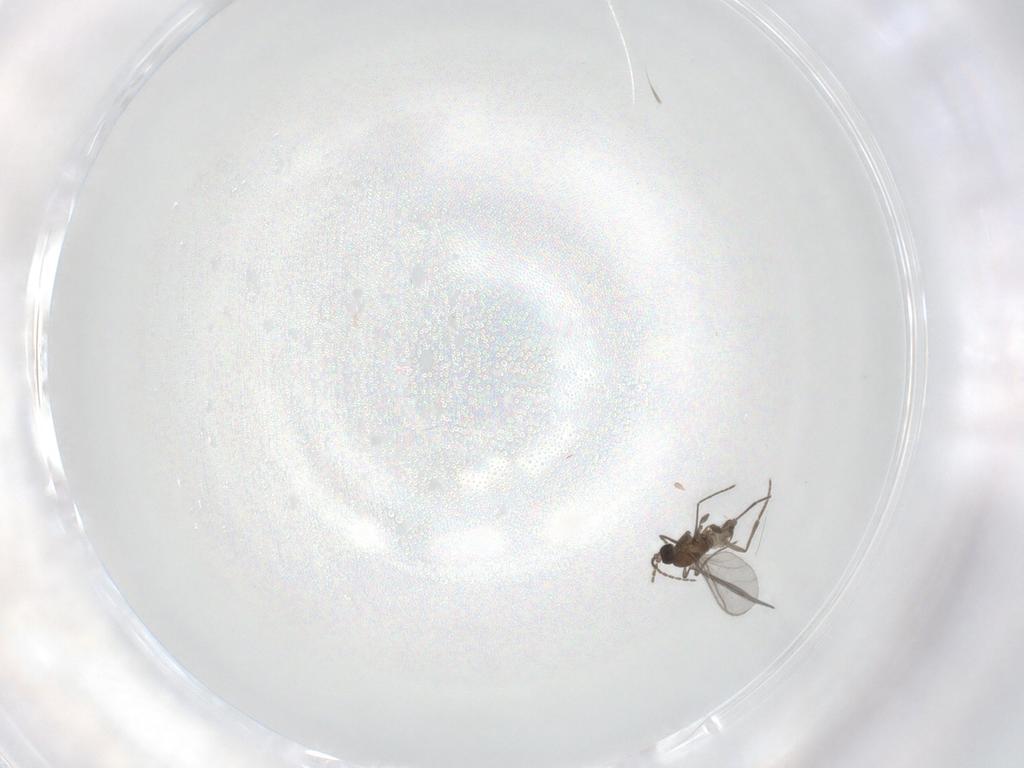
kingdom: Animalia
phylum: Arthropoda
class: Insecta
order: Diptera
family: Sciaridae
